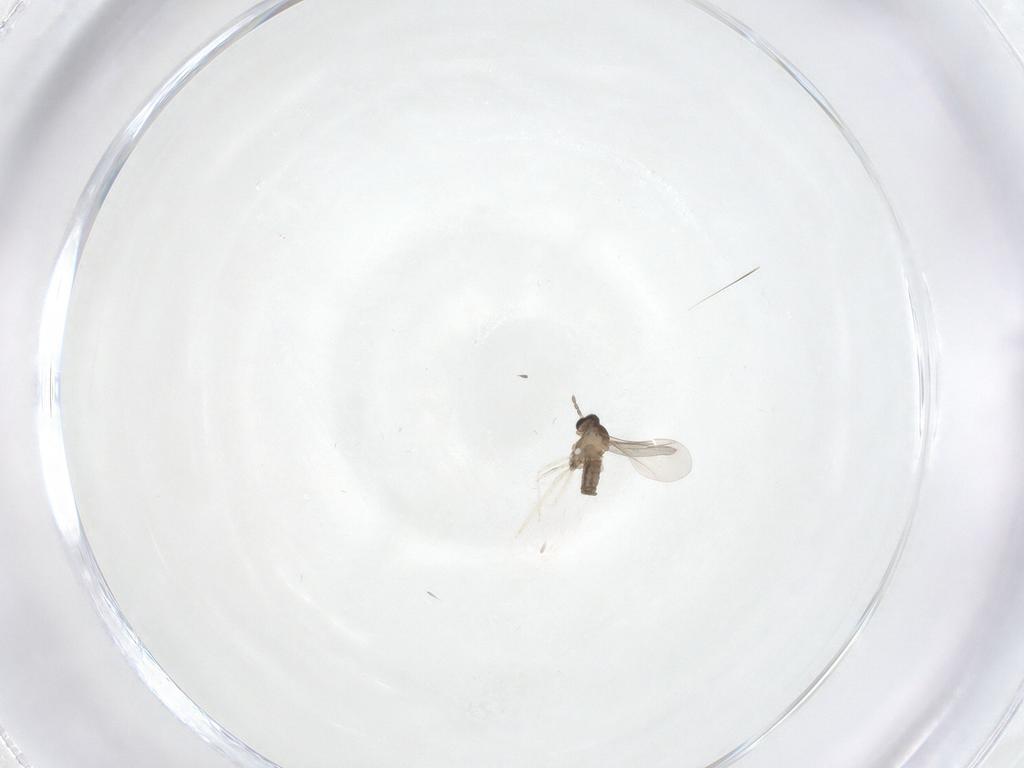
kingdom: Animalia
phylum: Arthropoda
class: Insecta
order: Diptera
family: Cecidomyiidae
